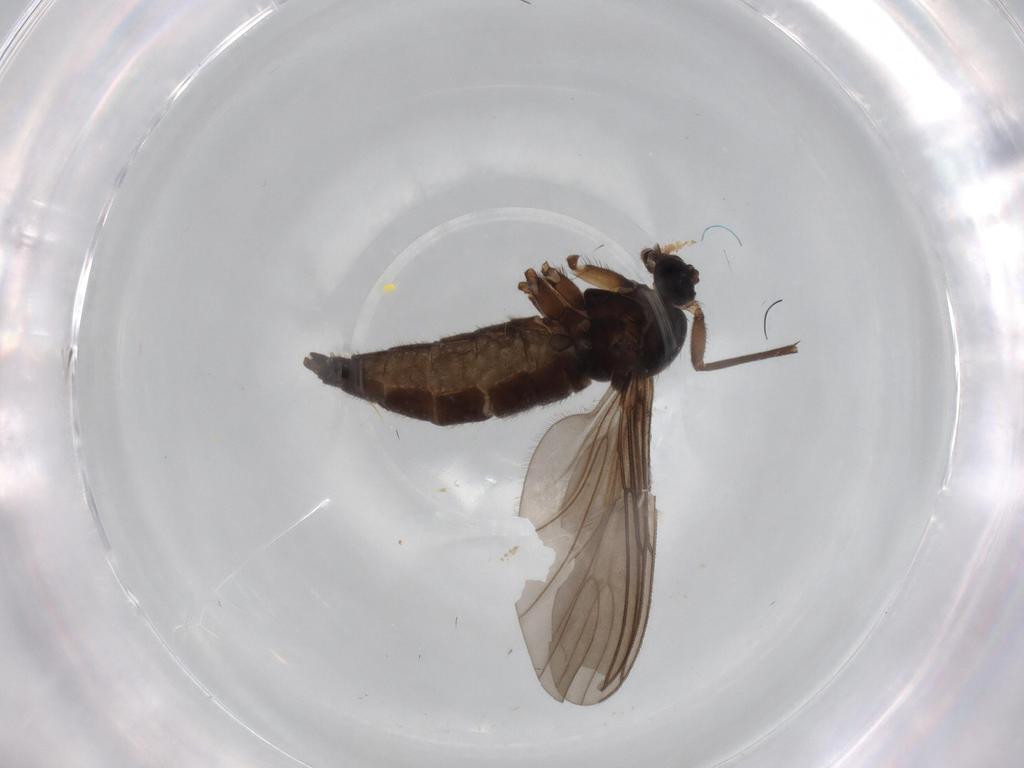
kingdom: Animalia
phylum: Arthropoda
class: Insecta
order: Diptera
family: Sciaridae
